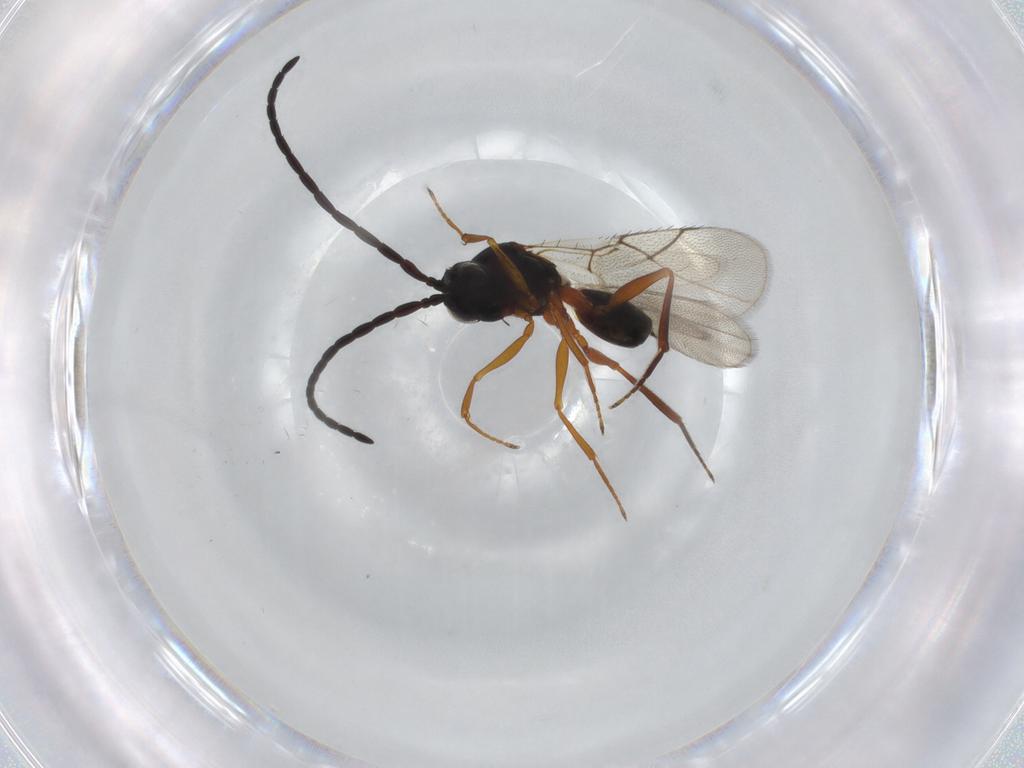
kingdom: Animalia
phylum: Arthropoda
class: Insecta
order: Hymenoptera
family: Figitidae
